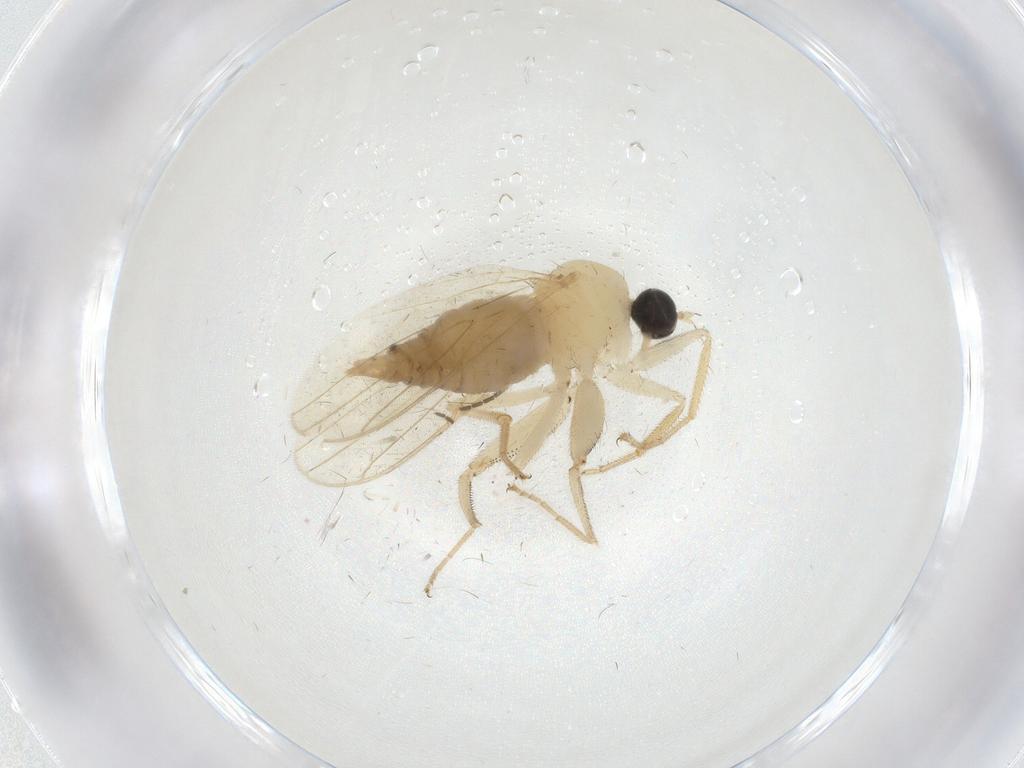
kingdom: Animalia
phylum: Arthropoda
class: Insecta
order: Diptera
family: Hybotidae
